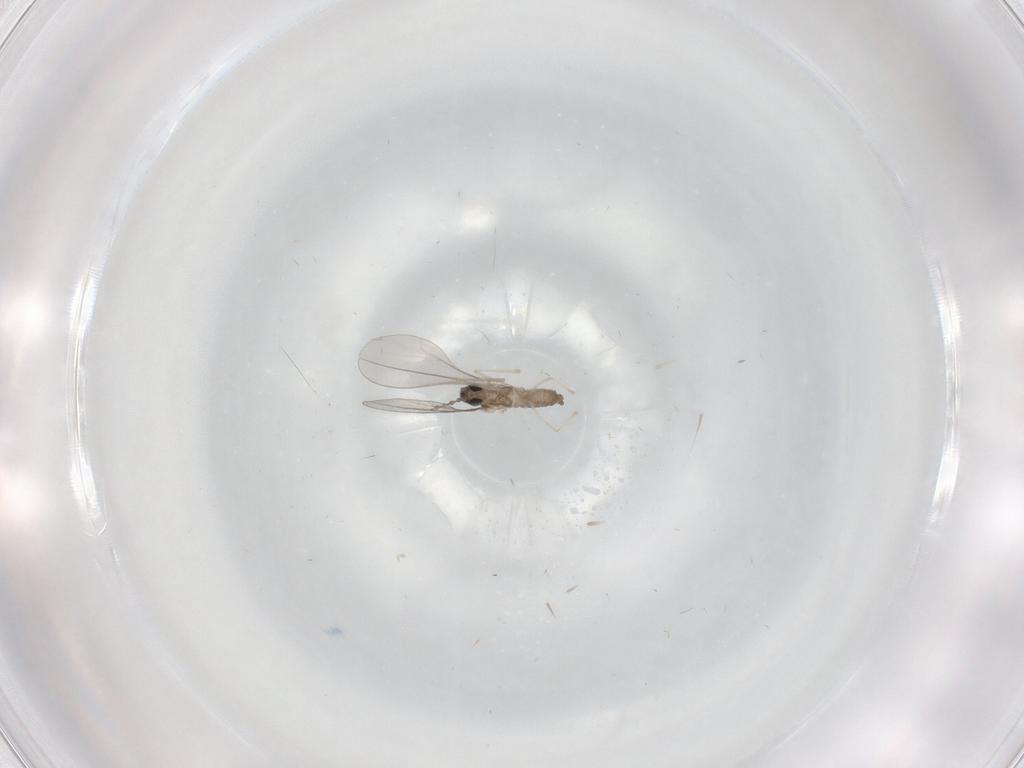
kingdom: Animalia
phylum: Arthropoda
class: Insecta
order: Diptera
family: Cecidomyiidae
